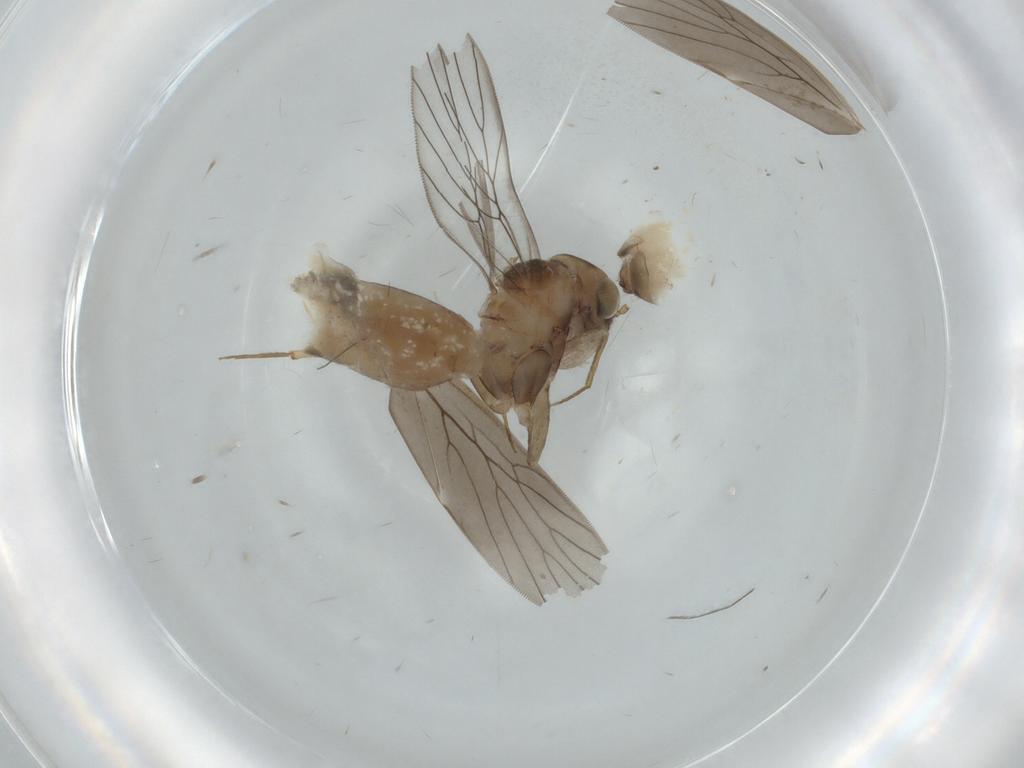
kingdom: Animalia
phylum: Arthropoda
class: Insecta
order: Psocodea
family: Lepidopsocidae
